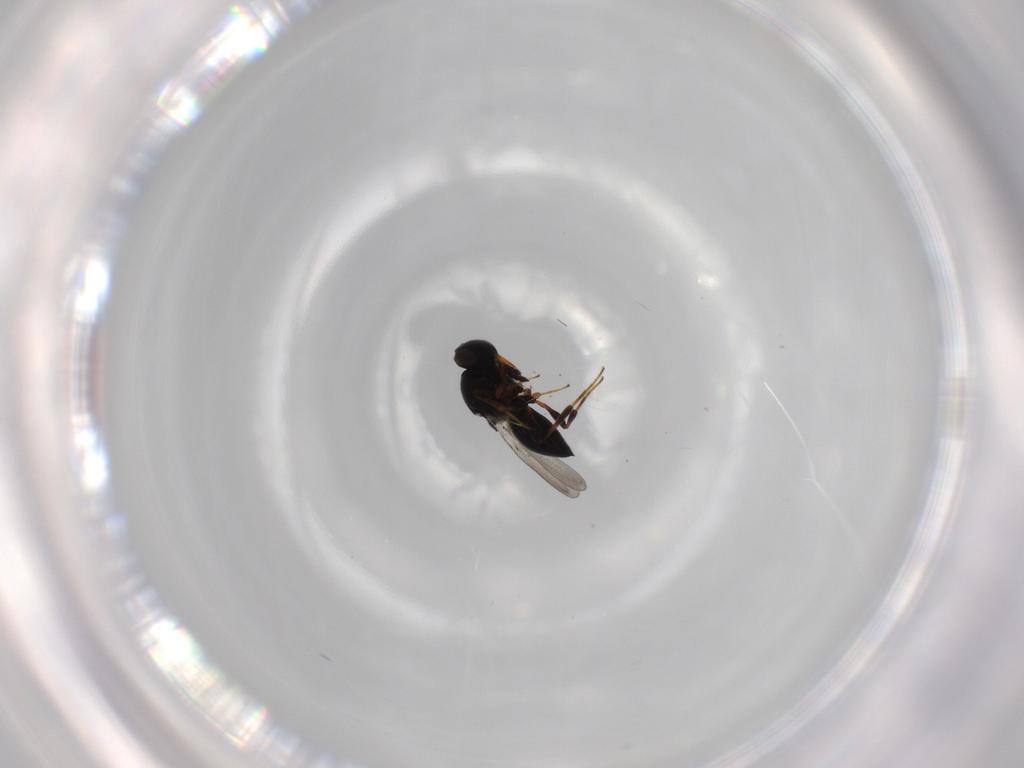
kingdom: Animalia
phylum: Arthropoda
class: Insecta
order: Hymenoptera
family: Platygastridae
